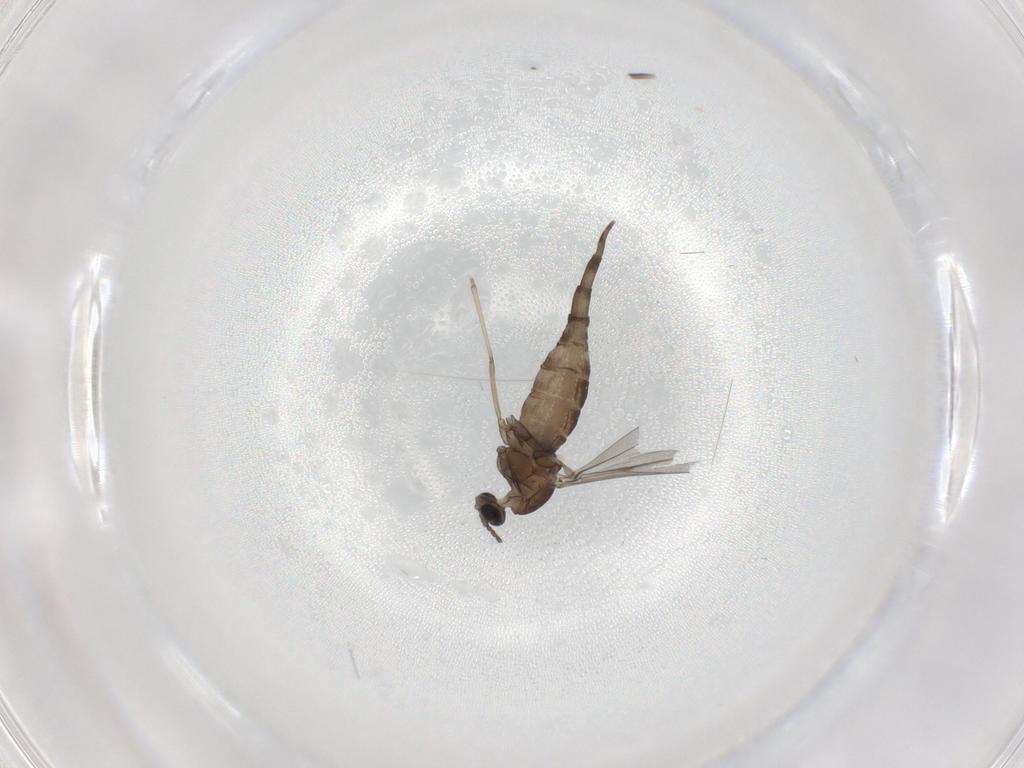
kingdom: Animalia
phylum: Arthropoda
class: Insecta
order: Diptera
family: Cecidomyiidae
